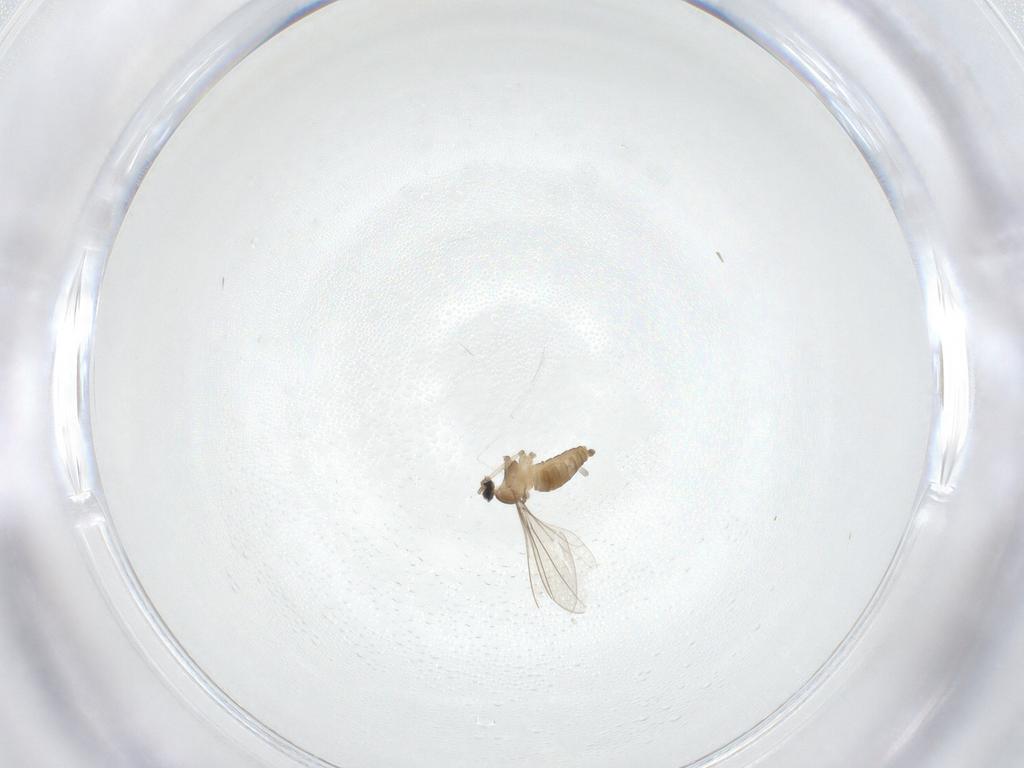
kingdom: Animalia
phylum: Arthropoda
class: Insecta
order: Diptera
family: Cecidomyiidae
